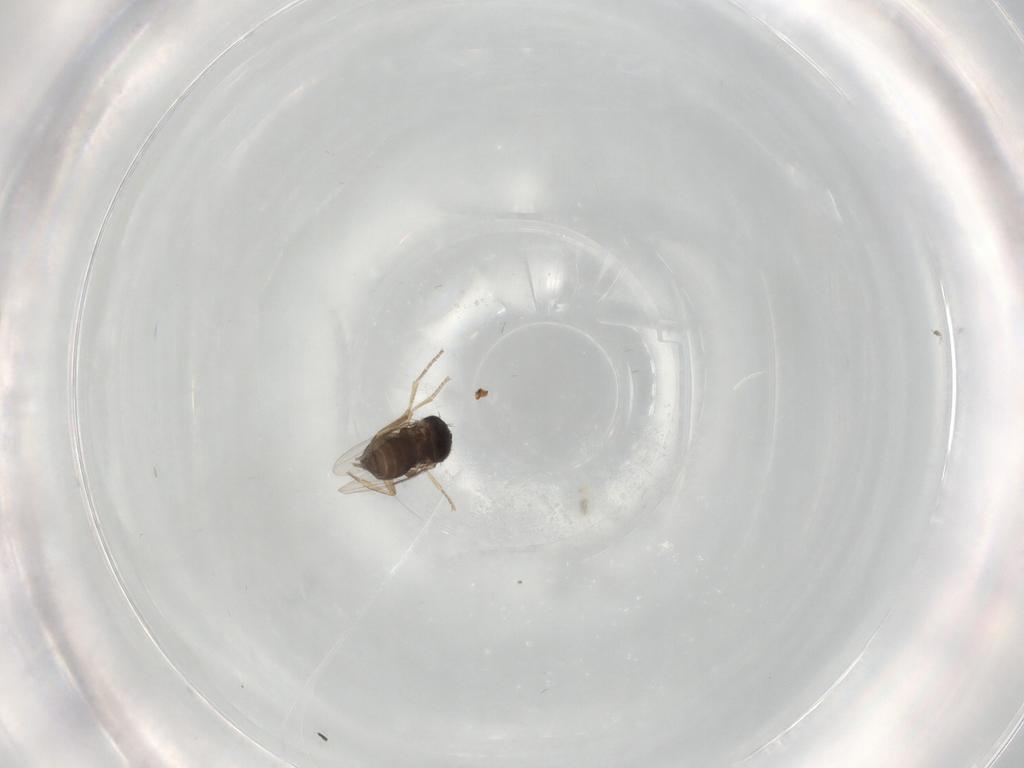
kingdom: Animalia
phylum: Arthropoda
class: Insecta
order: Diptera
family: Phoridae
